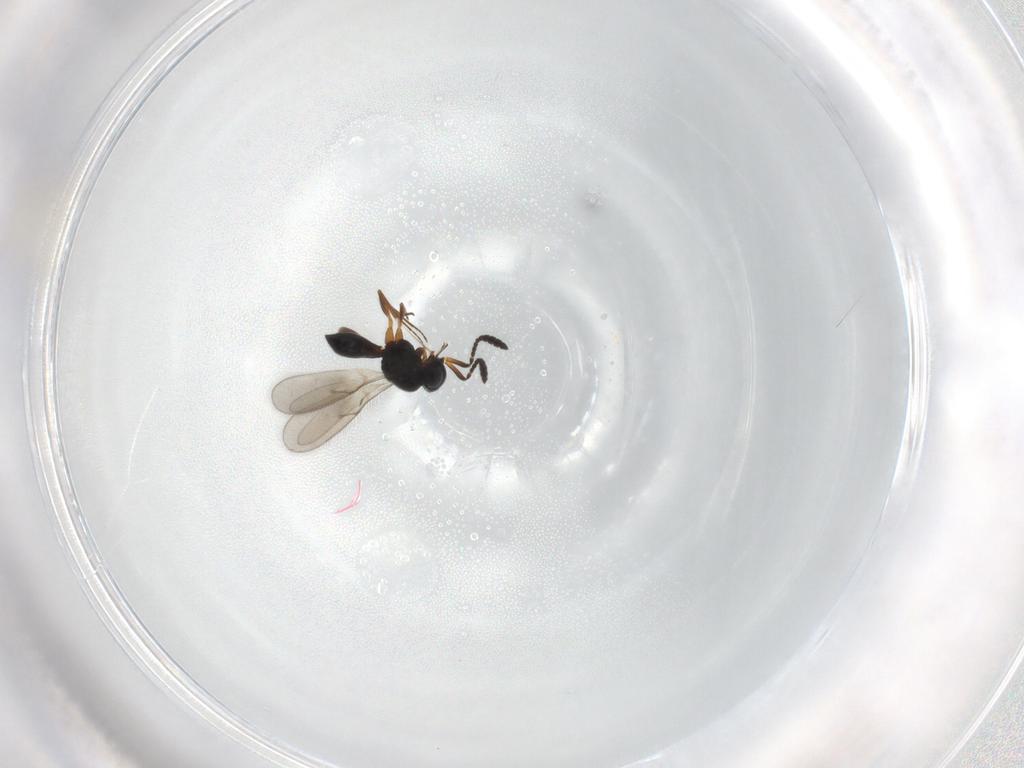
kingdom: Animalia
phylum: Arthropoda
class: Insecta
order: Hymenoptera
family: Scelionidae
